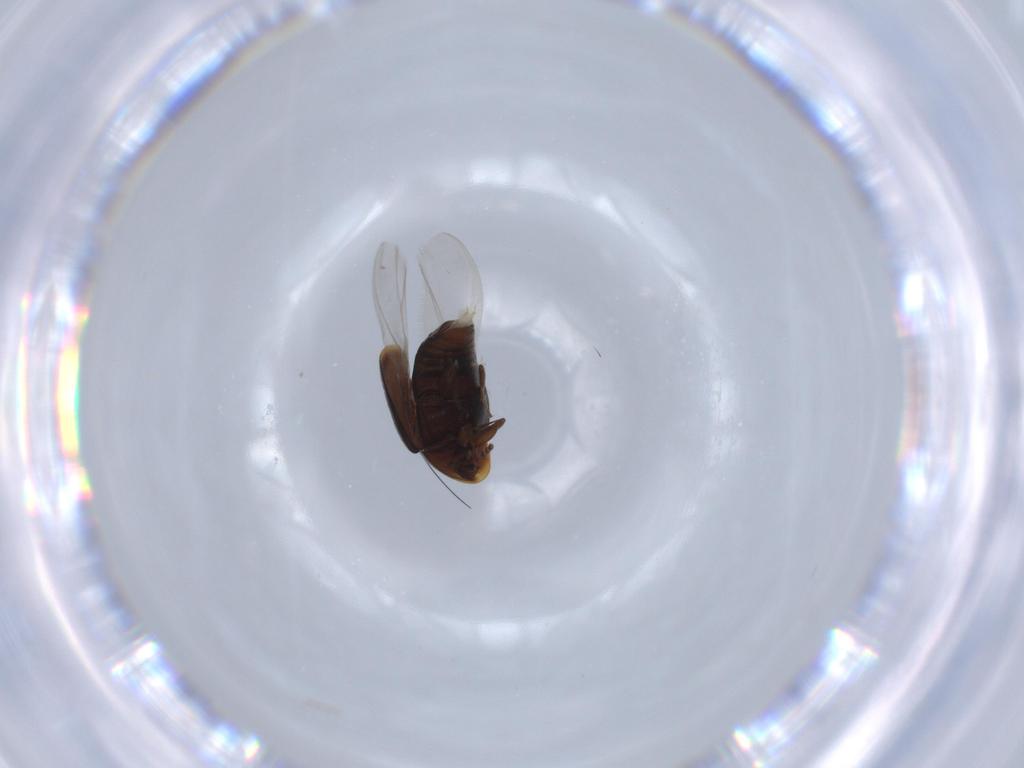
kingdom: Animalia
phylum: Arthropoda
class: Insecta
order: Coleoptera
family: Corylophidae
